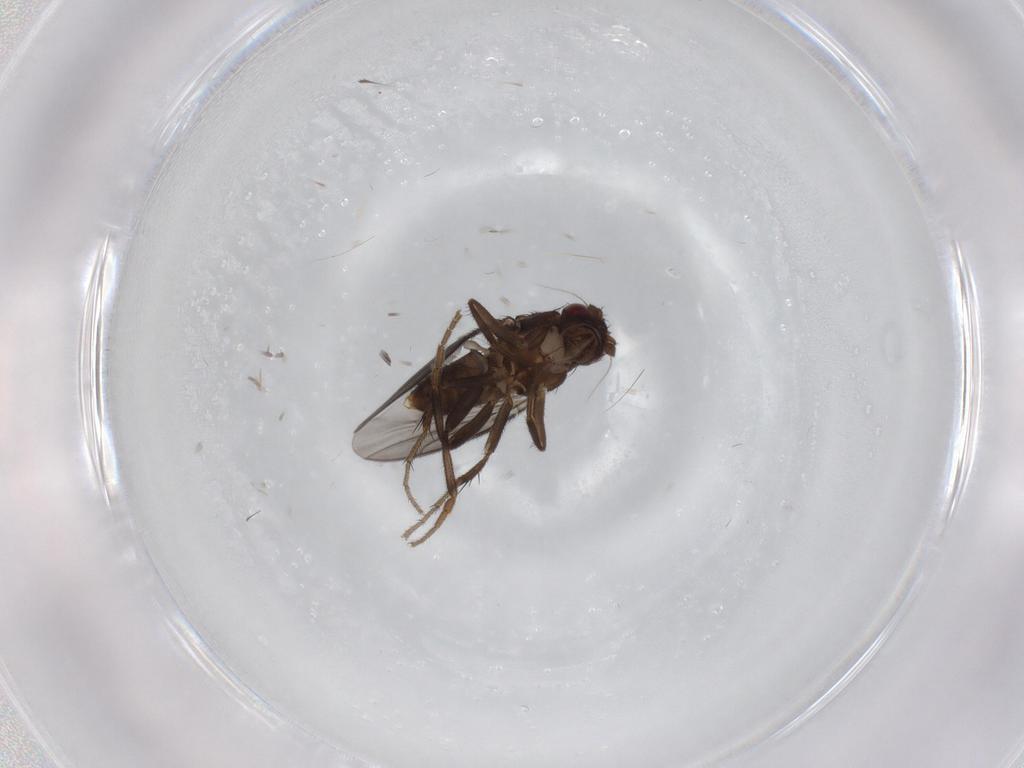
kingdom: Animalia
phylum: Arthropoda
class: Insecta
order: Diptera
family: Sphaeroceridae
